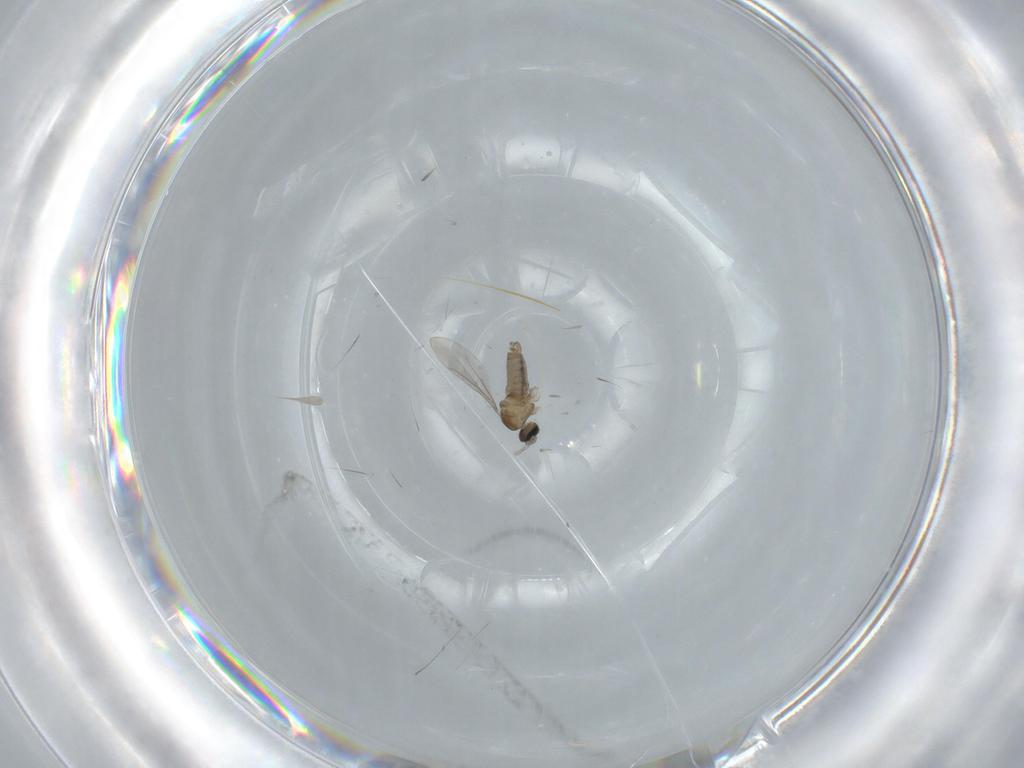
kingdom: Animalia
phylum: Arthropoda
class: Insecta
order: Diptera
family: Cecidomyiidae
